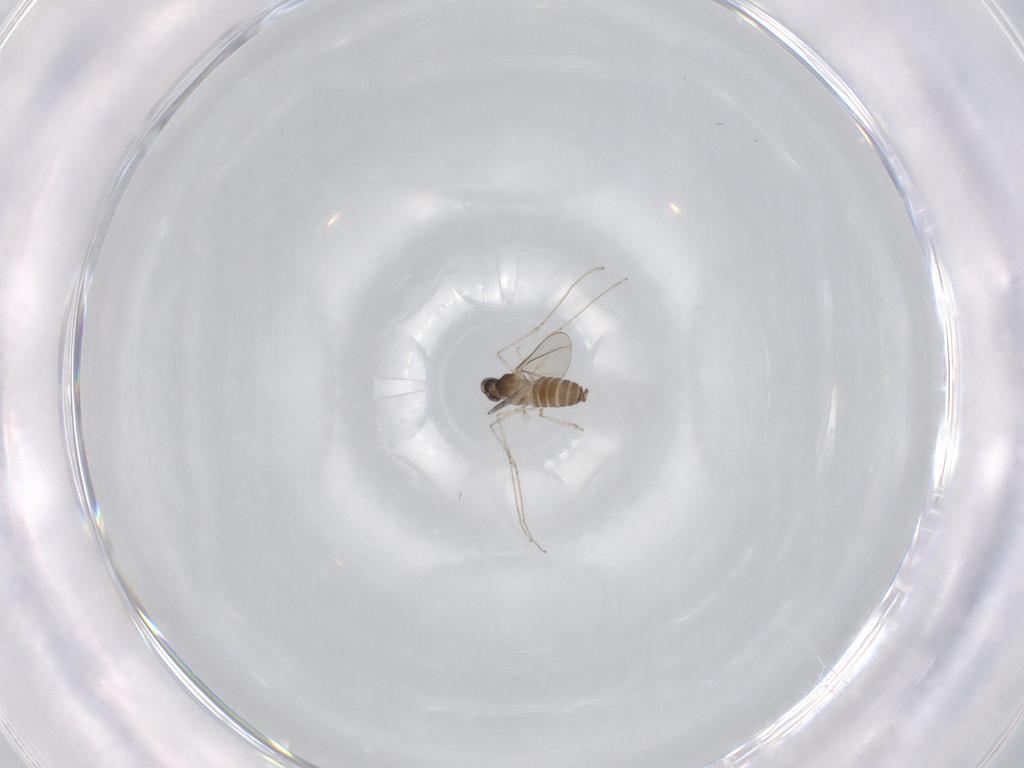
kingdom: Animalia
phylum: Arthropoda
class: Insecta
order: Diptera
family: Cecidomyiidae
